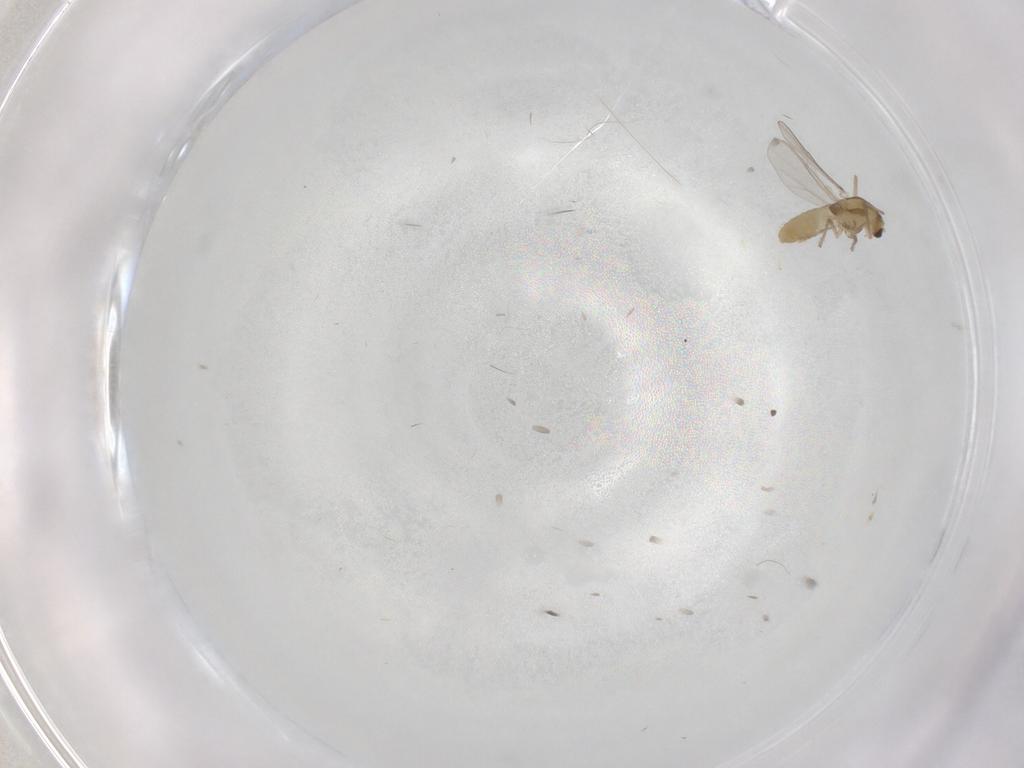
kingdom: Animalia
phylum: Arthropoda
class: Insecta
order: Diptera
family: Chironomidae
